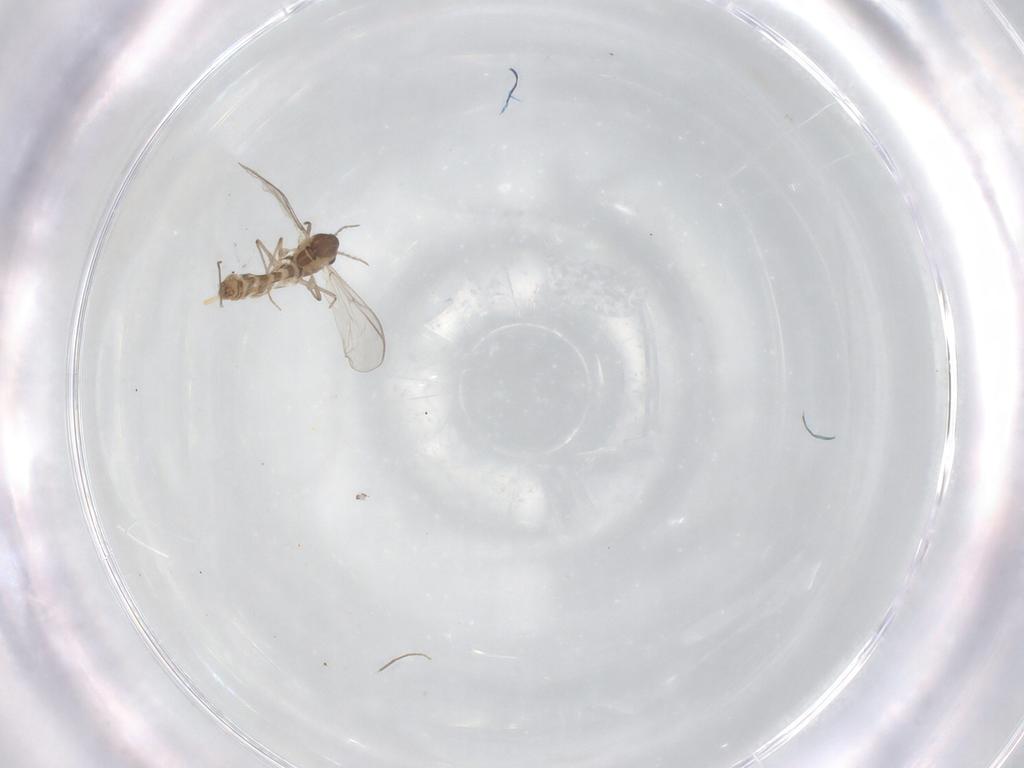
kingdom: Animalia
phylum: Arthropoda
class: Insecta
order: Diptera
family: Chironomidae
